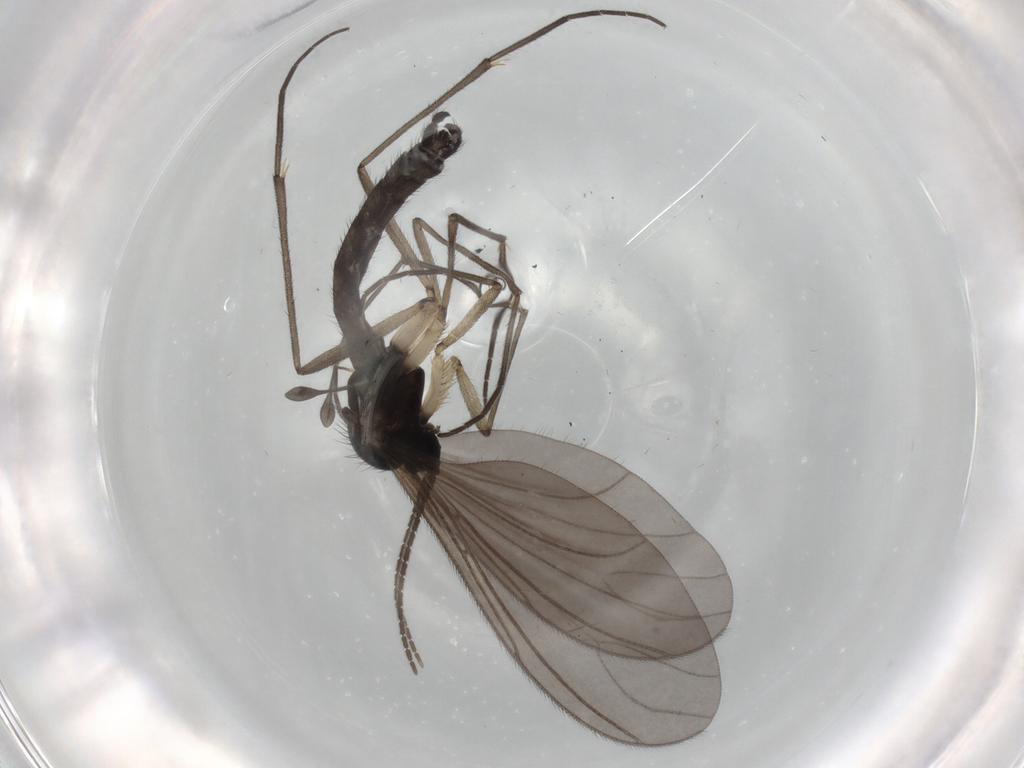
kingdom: Animalia
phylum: Arthropoda
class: Insecta
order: Diptera
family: Sciaridae
